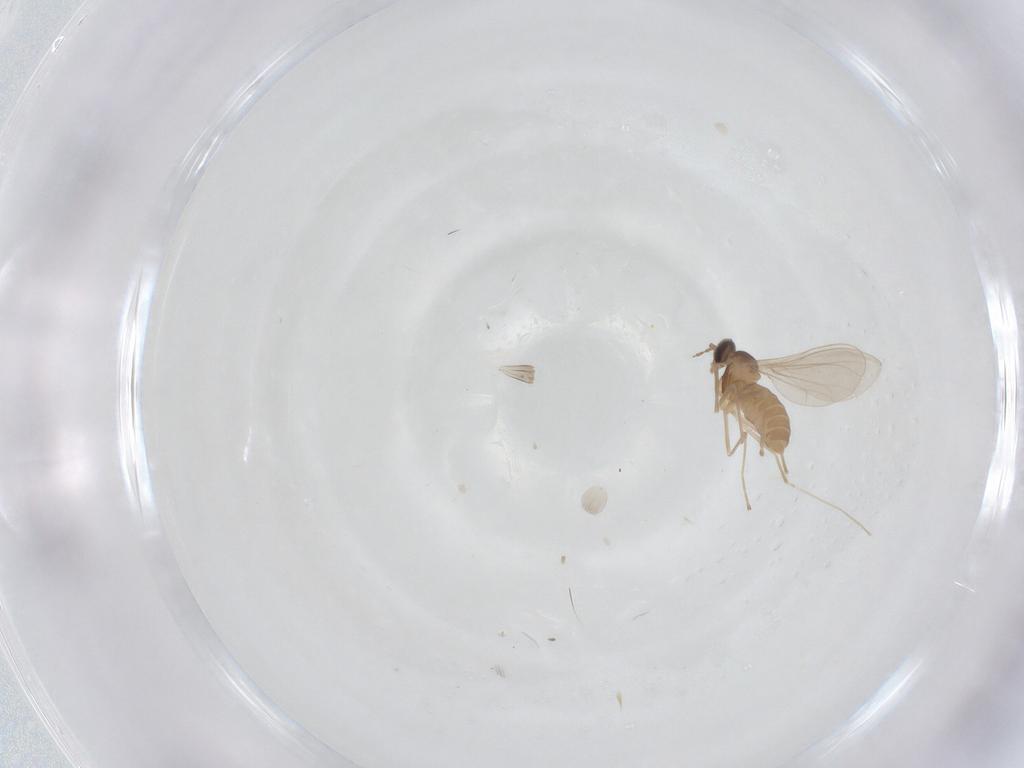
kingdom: Animalia
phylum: Arthropoda
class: Insecta
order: Diptera
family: Cecidomyiidae
